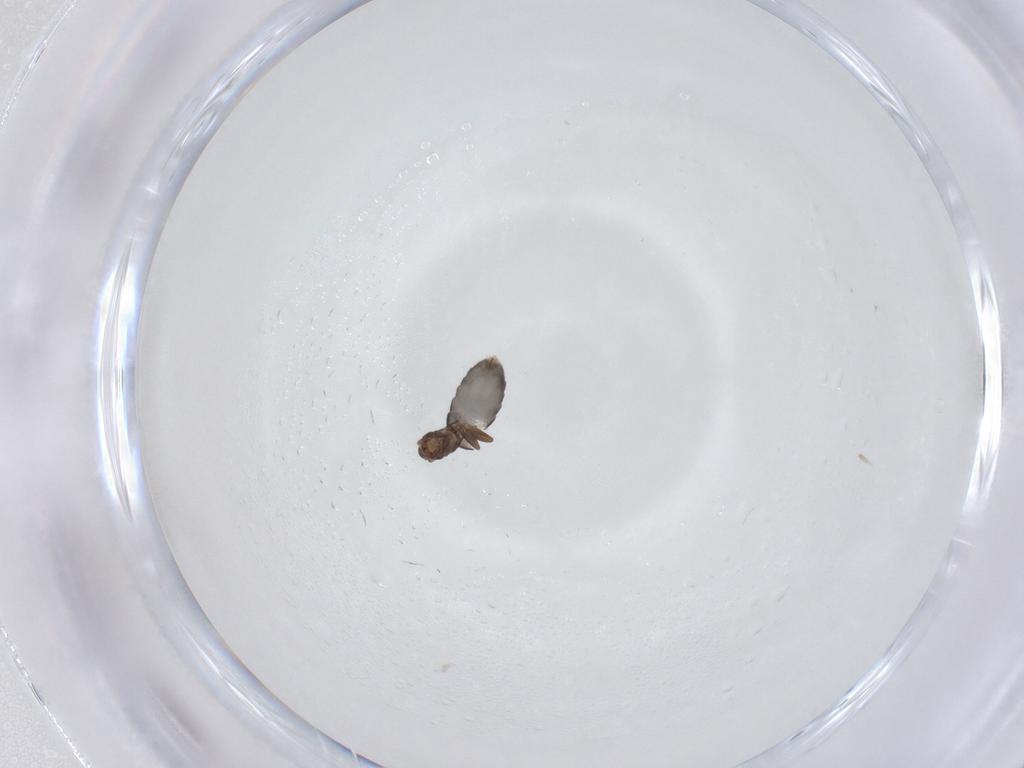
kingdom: Animalia
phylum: Arthropoda
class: Insecta
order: Diptera
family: Phoridae
